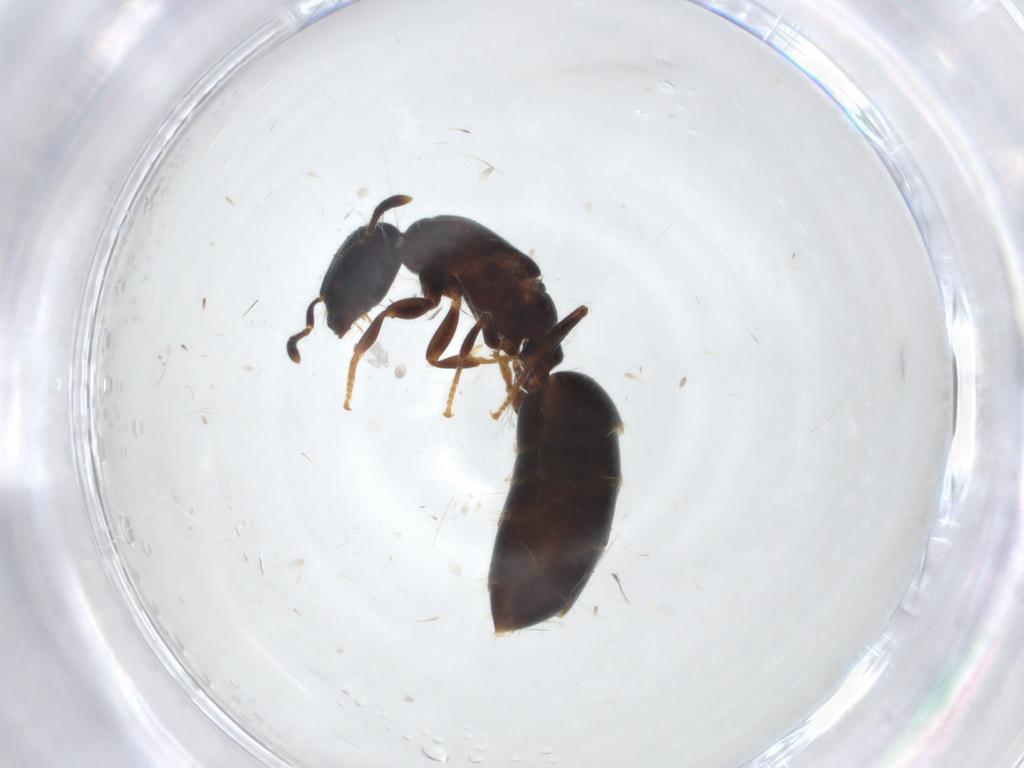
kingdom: Animalia
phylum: Arthropoda
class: Insecta
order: Hymenoptera
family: Formicidae
